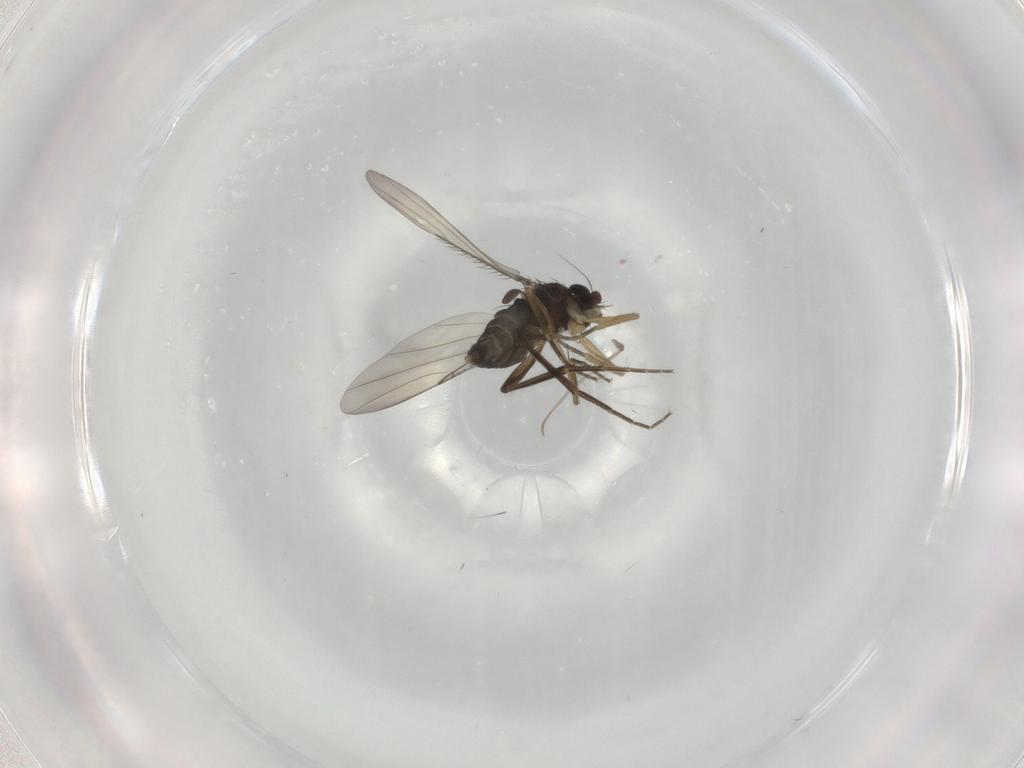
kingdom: Animalia
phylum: Arthropoda
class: Insecta
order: Diptera
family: Phoridae
